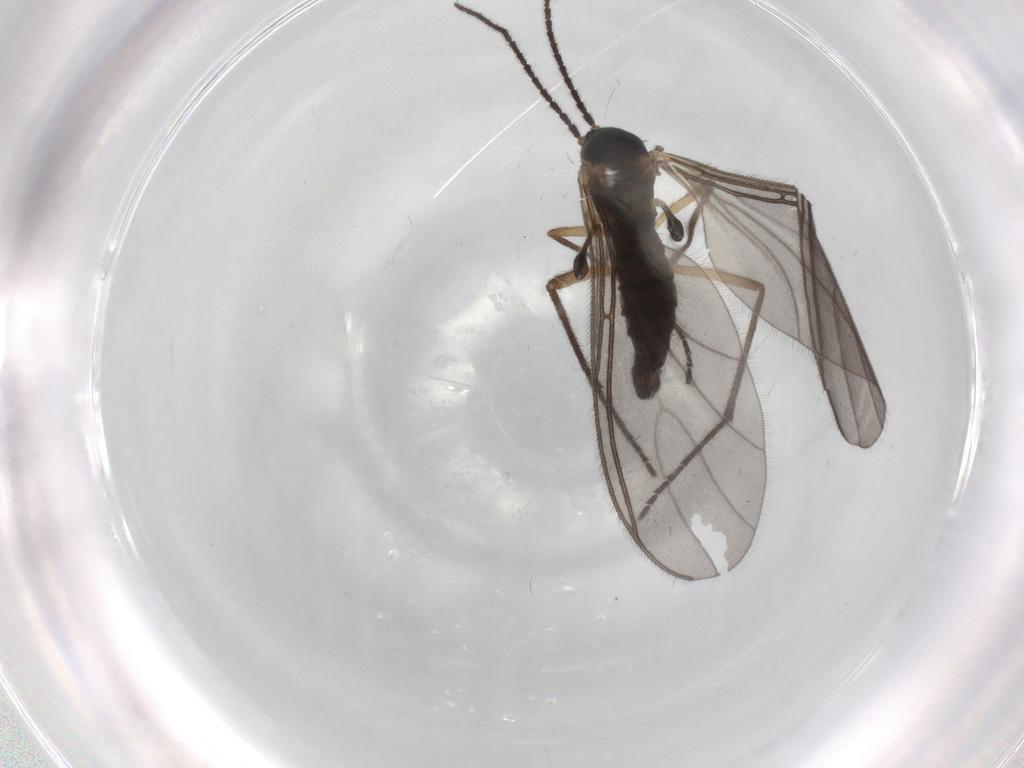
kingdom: Animalia
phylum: Arthropoda
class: Insecta
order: Diptera
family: Sciaridae
